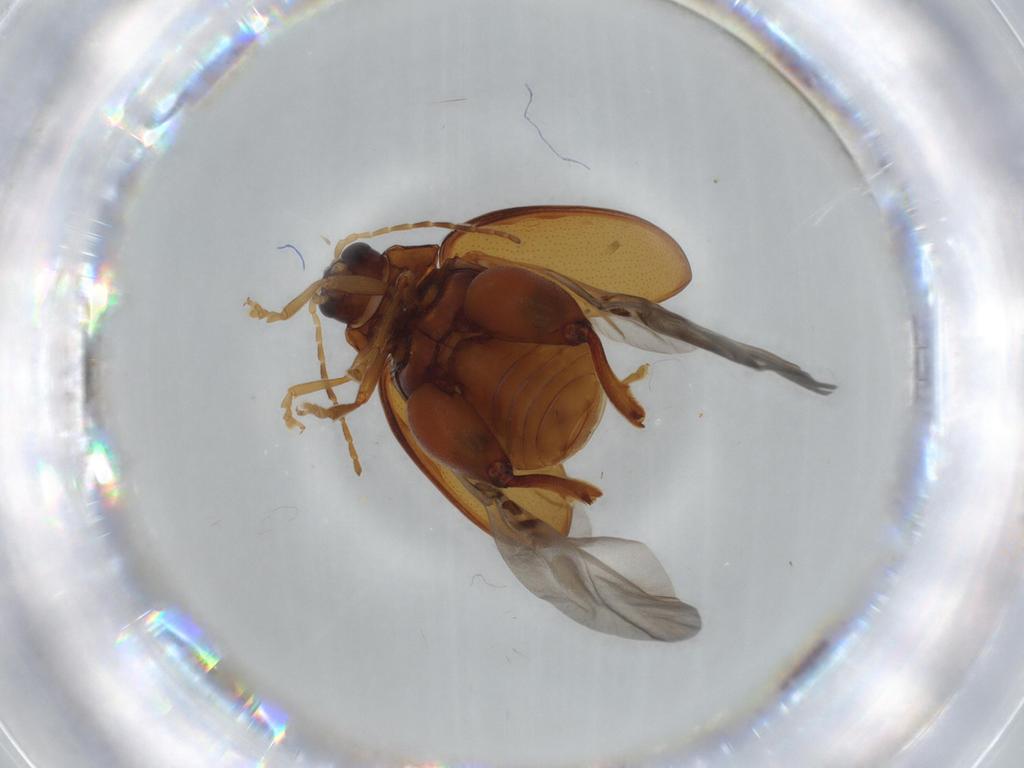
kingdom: Animalia
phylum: Arthropoda
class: Insecta
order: Coleoptera
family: Chrysomelidae
